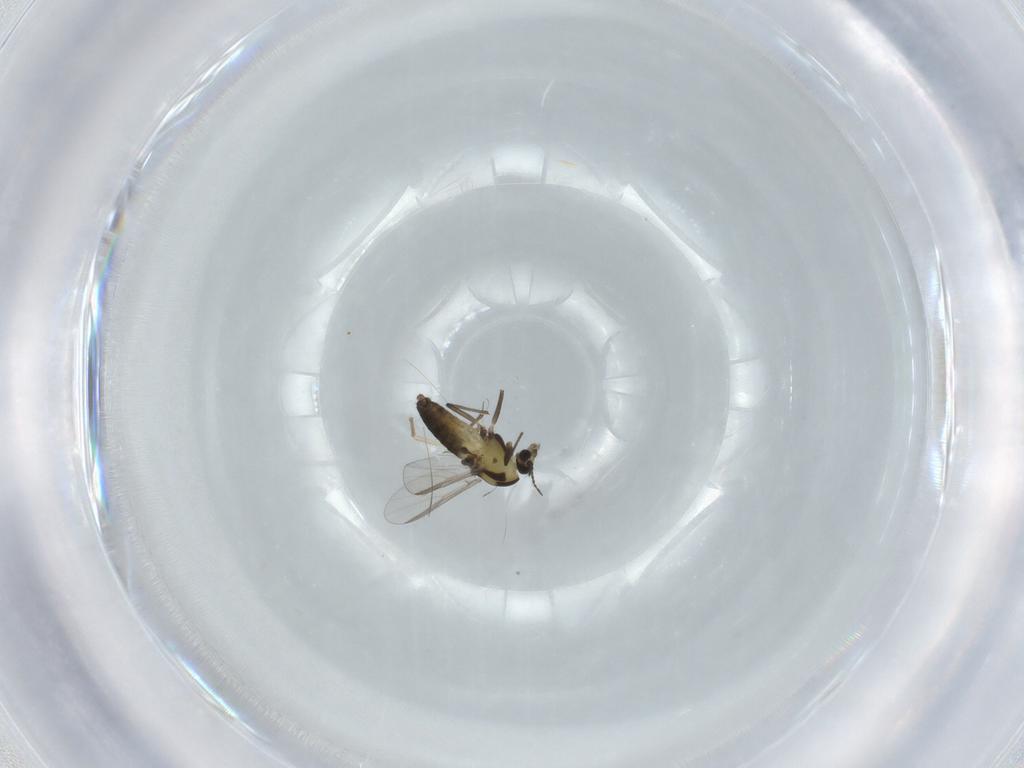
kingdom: Animalia
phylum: Arthropoda
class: Insecta
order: Diptera
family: Chironomidae
